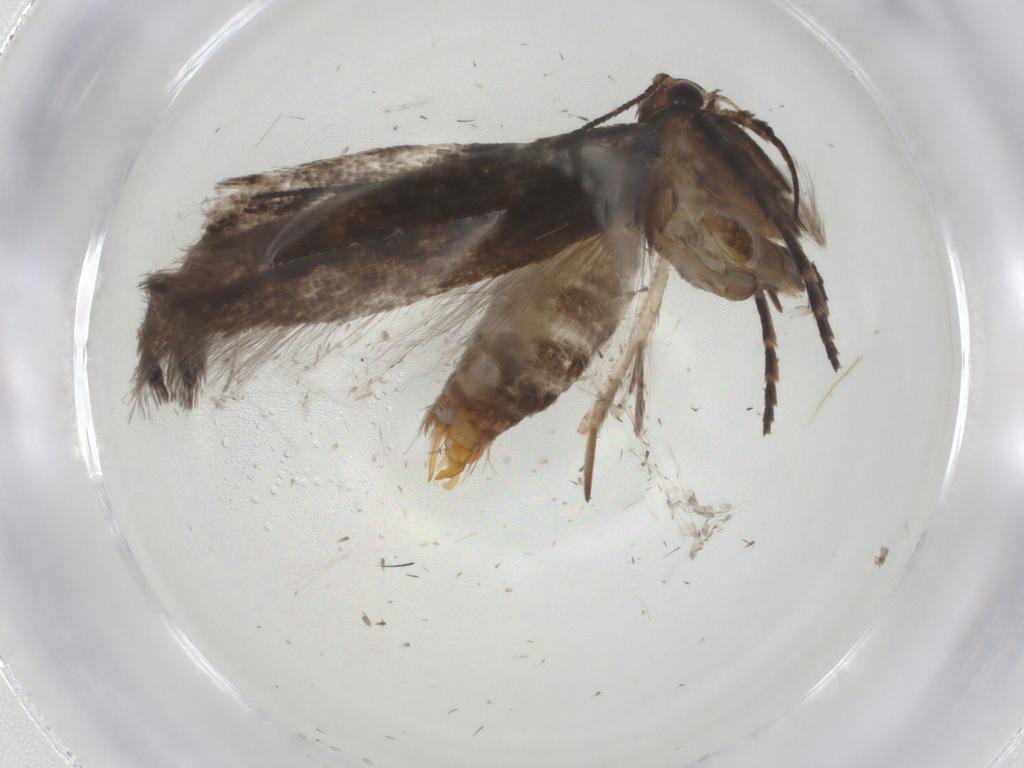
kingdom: Animalia
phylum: Arthropoda
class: Insecta
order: Lepidoptera
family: Gelechiidae
